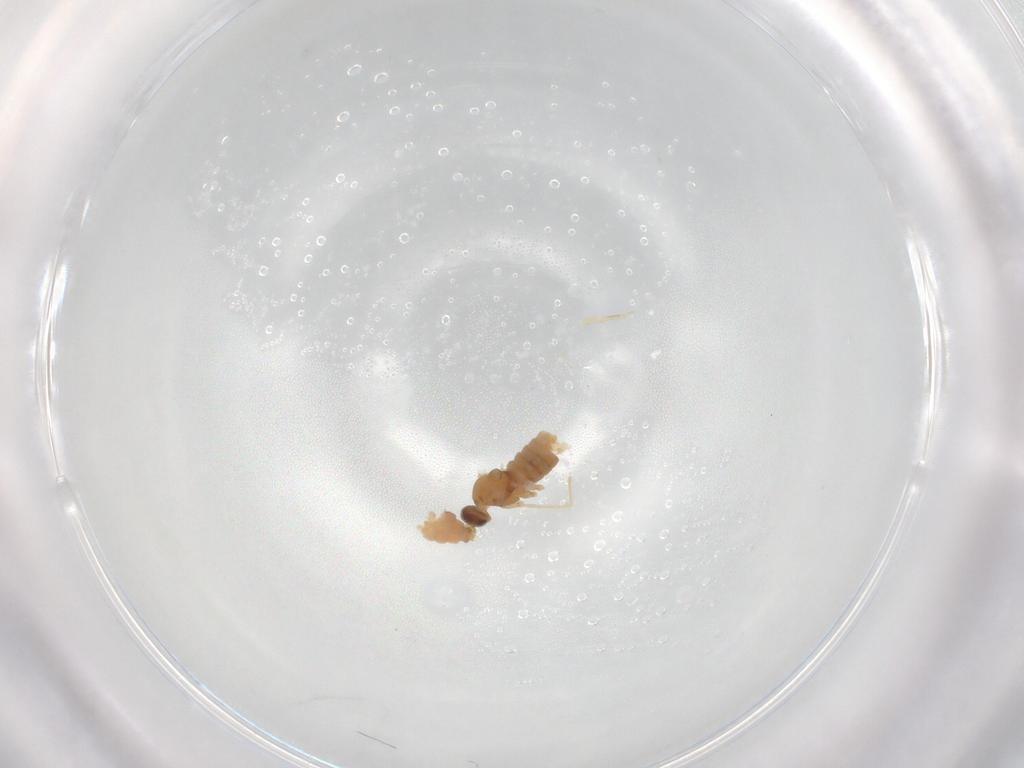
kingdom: Animalia
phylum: Arthropoda
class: Insecta
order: Diptera
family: Cecidomyiidae
